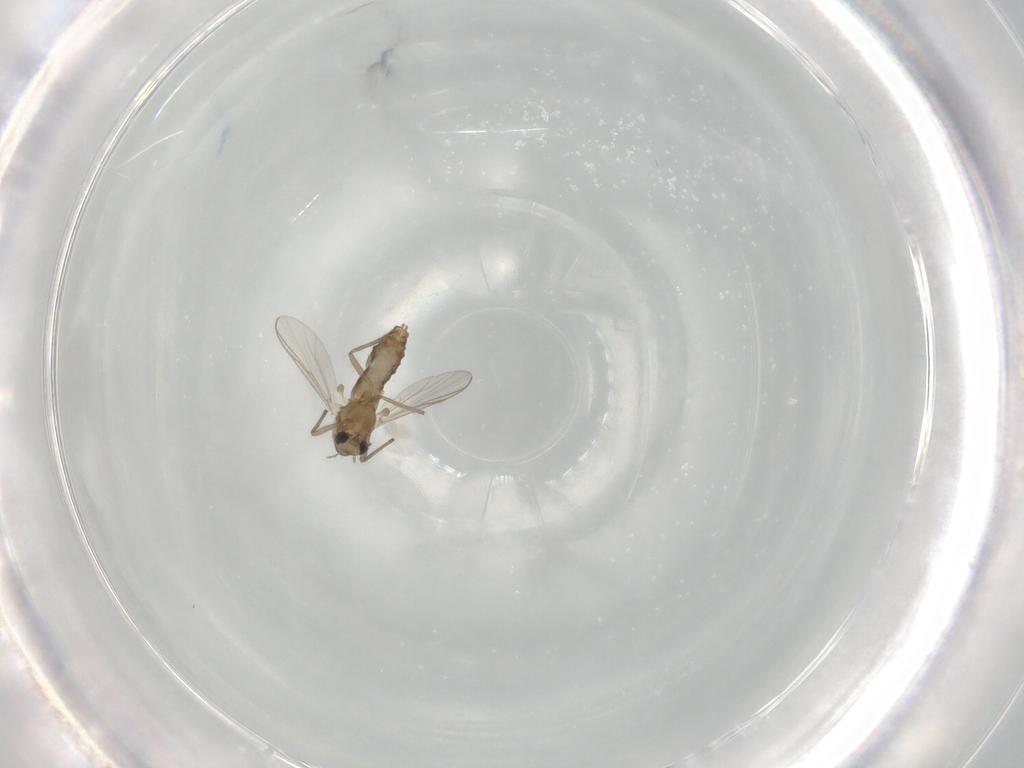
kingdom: Animalia
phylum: Arthropoda
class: Insecta
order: Diptera
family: Chironomidae
